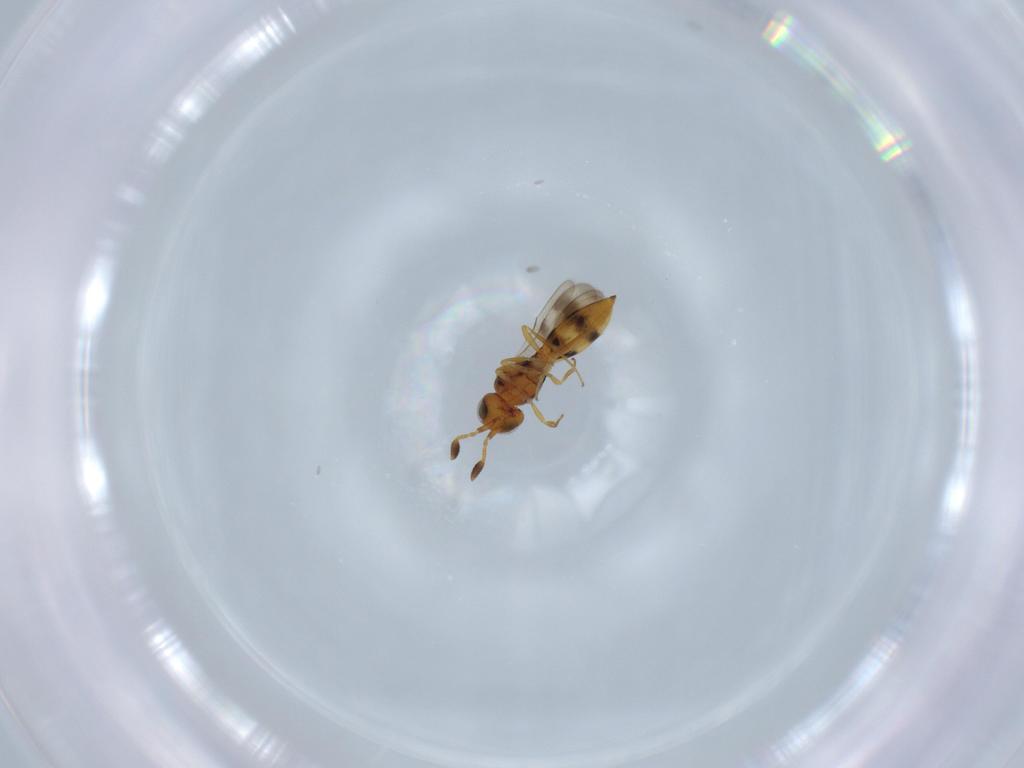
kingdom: Animalia
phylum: Arthropoda
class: Insecta
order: Hymenoptera
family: Scelionidae
